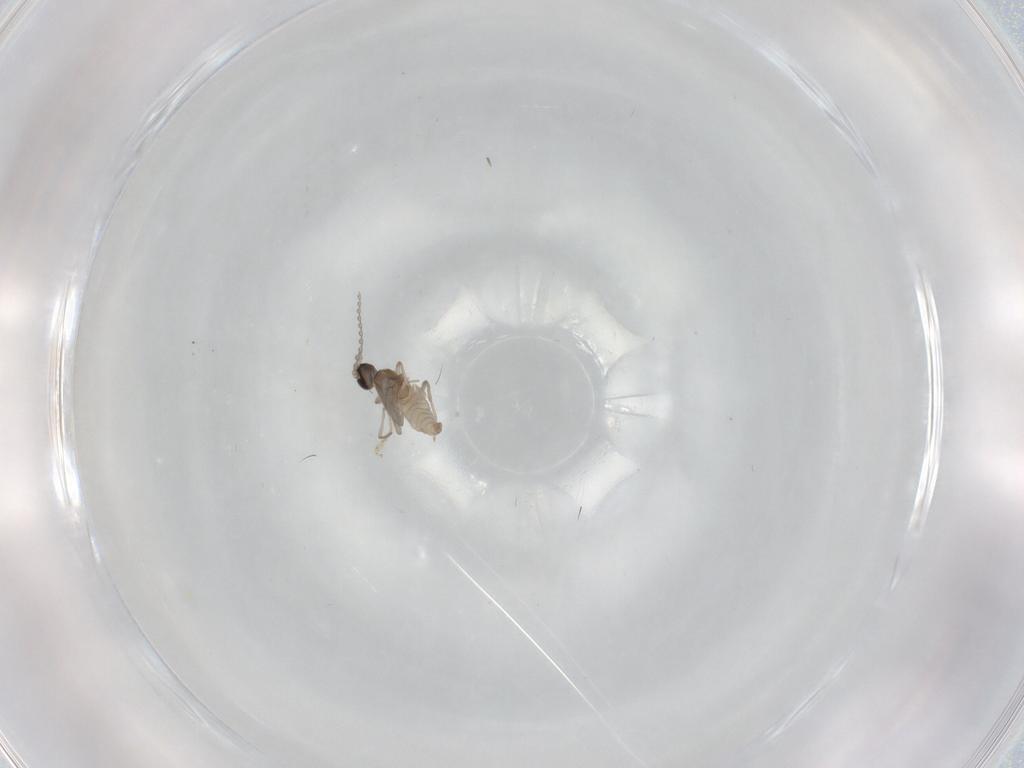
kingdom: Animalia
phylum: Arthropoda
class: Insecta
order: Diptera
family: Cecidomyiidae
